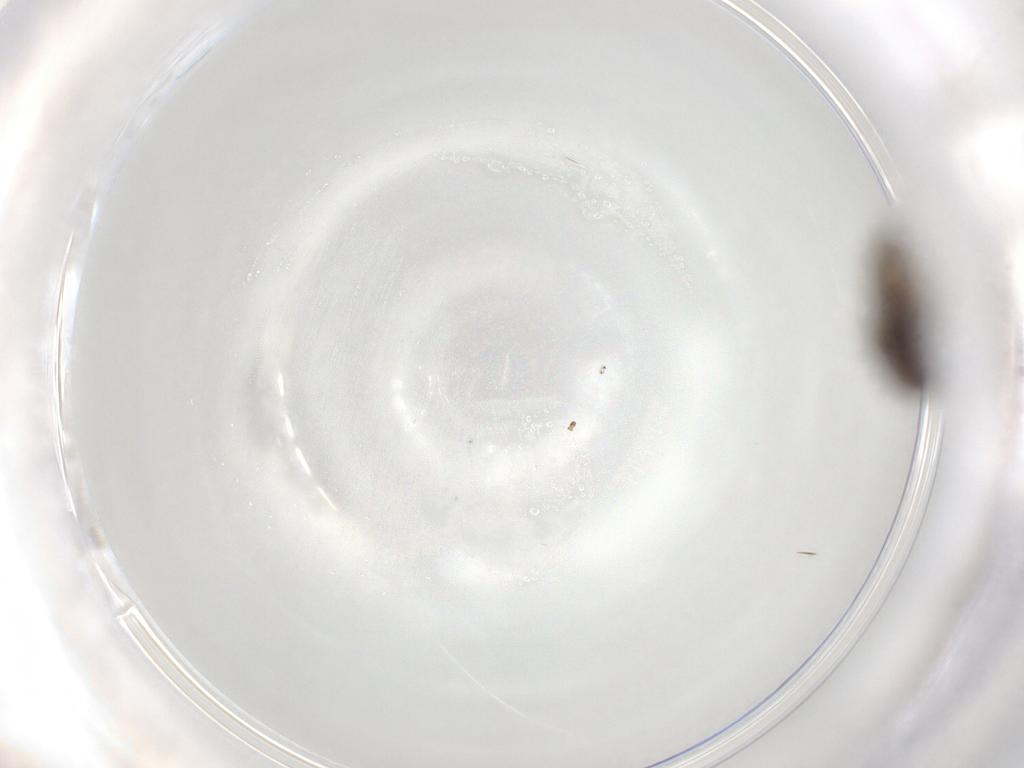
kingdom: Animalia
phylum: Arthropoda
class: Insecta
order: Diptera
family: Chloropidae
